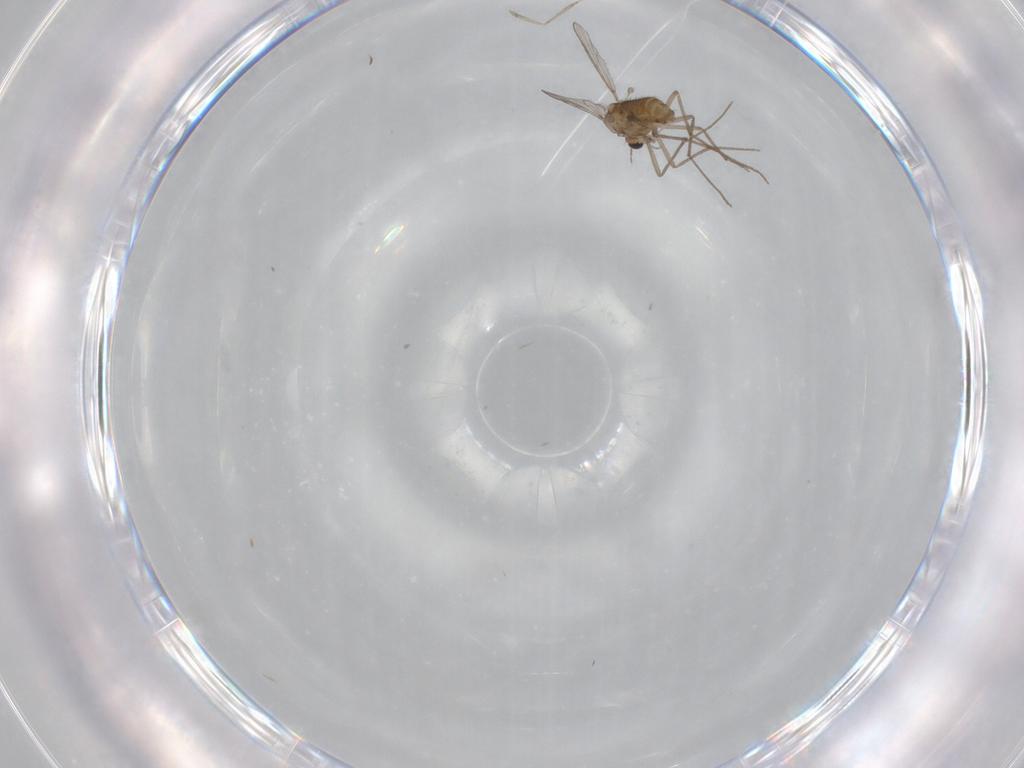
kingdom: Animalia
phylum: Arthropoda
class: Insecta
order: Diptera
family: Chironomidae
